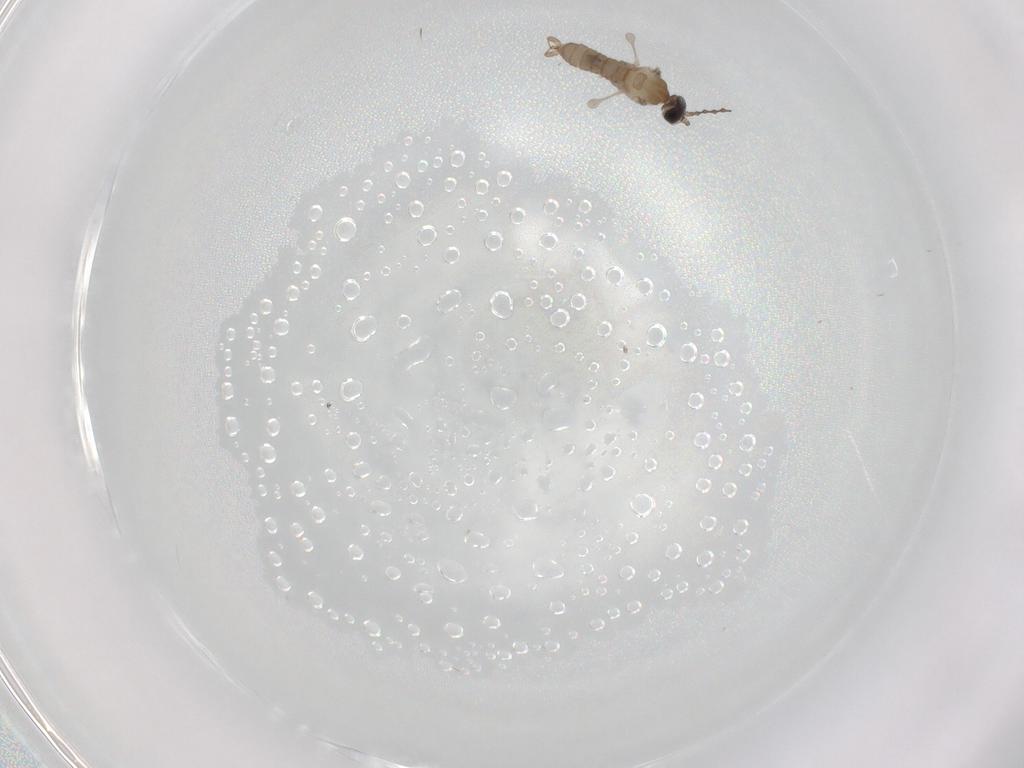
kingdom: Animalia
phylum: Arthropoda
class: Insecta
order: Diptera
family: Cecidomyiidae
